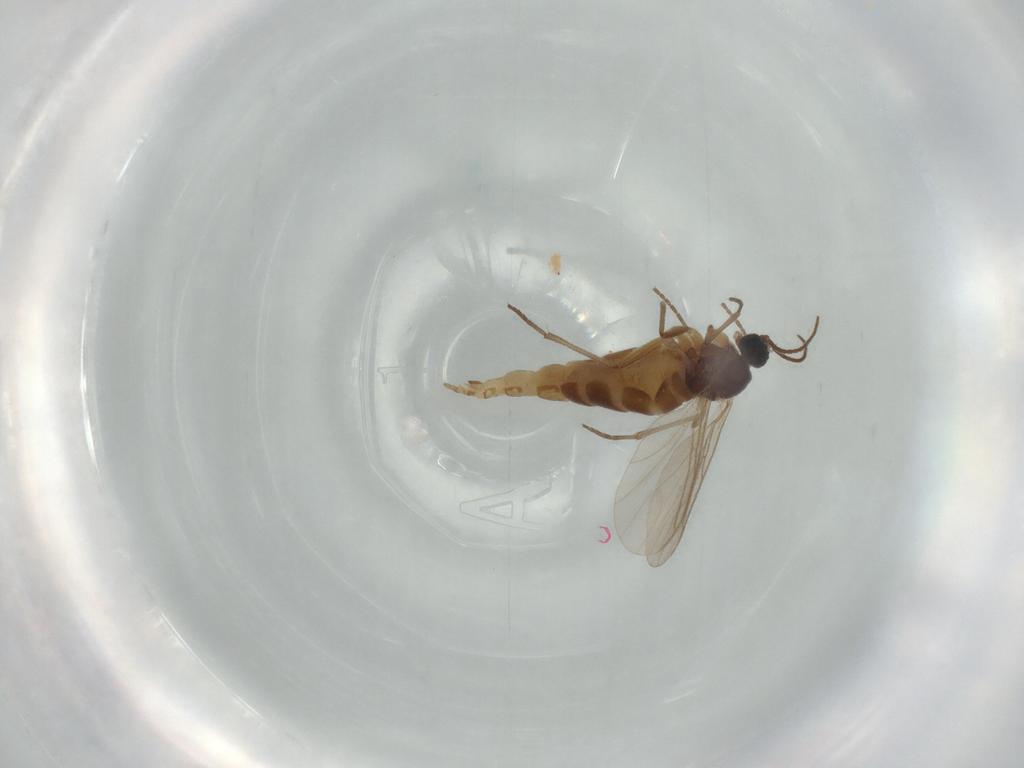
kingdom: Animalia
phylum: Arthropoda
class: Insecta
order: Diptera
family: Sciaridae
